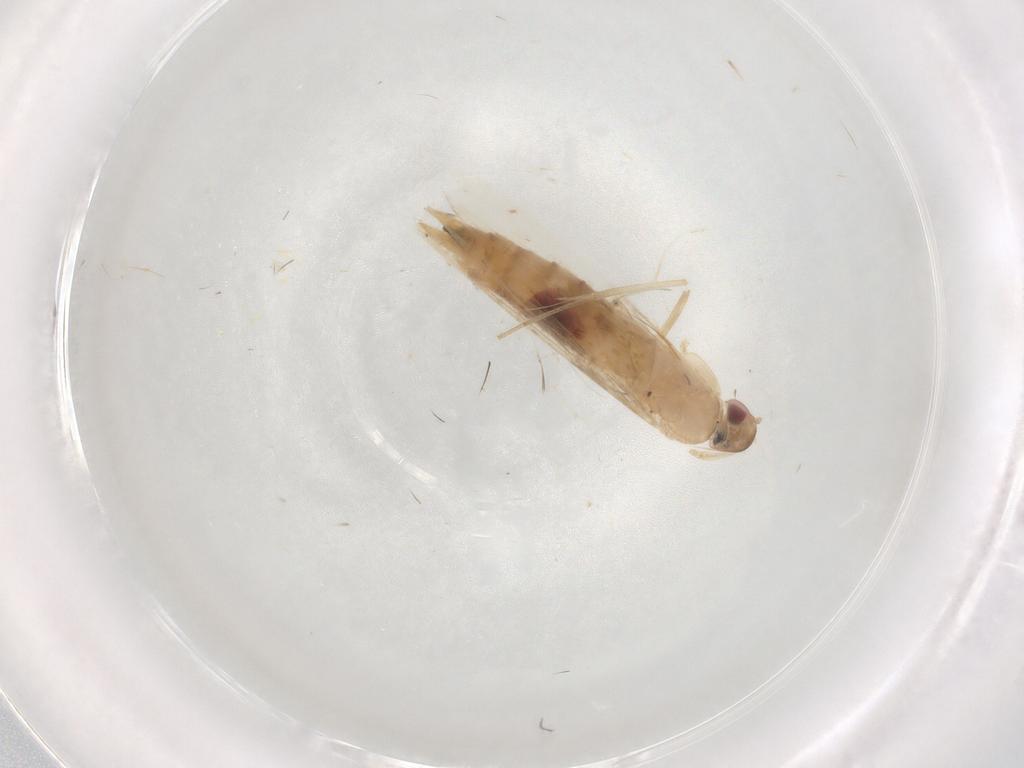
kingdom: Animalia
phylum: Arthropoda
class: Insecta
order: Lepidoptera
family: Cosmopterigidae
